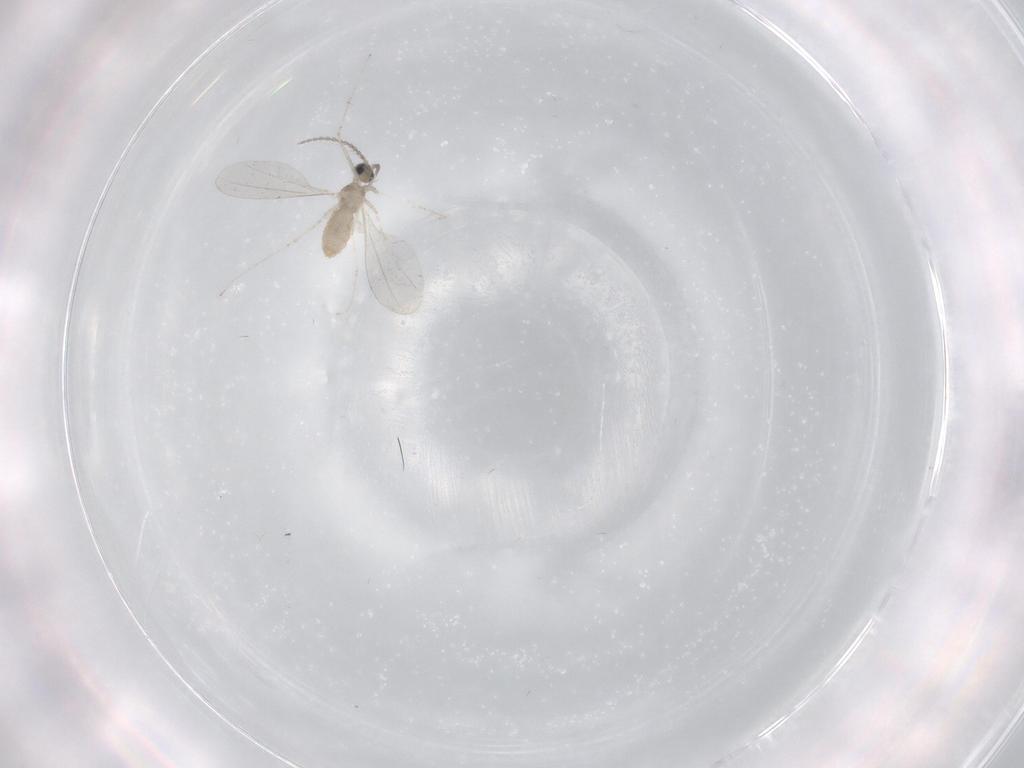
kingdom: Animalia
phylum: Arthropoda
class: Insecta
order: Diptera
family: Cecidomyiidae
